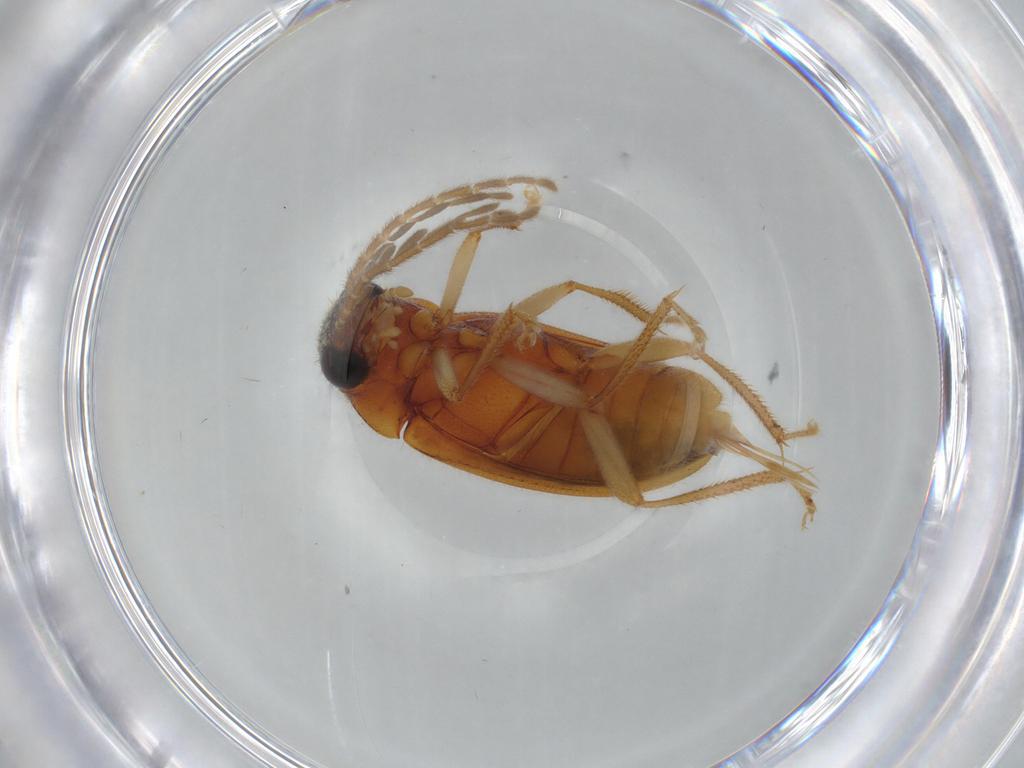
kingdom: Animalia
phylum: Arthropoda
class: Insecta
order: Coleoptera
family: Ptilodactylidae
